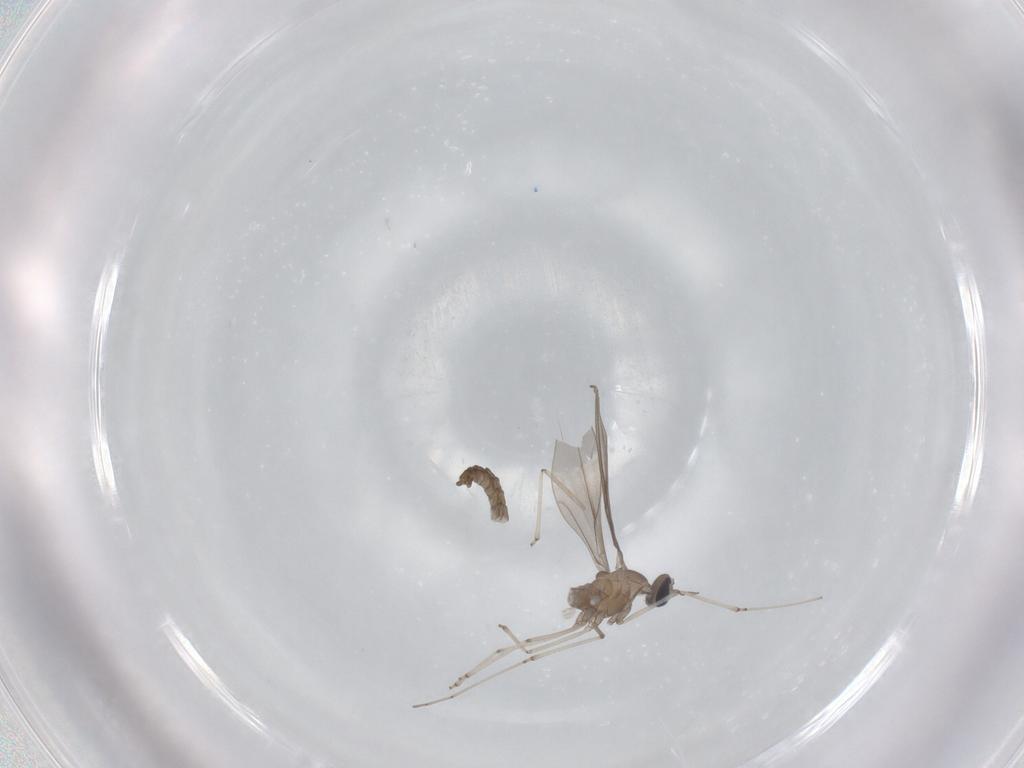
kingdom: Animalia
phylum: Arthropoda
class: Insecta
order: Diptera
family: Cecidomyiidae
